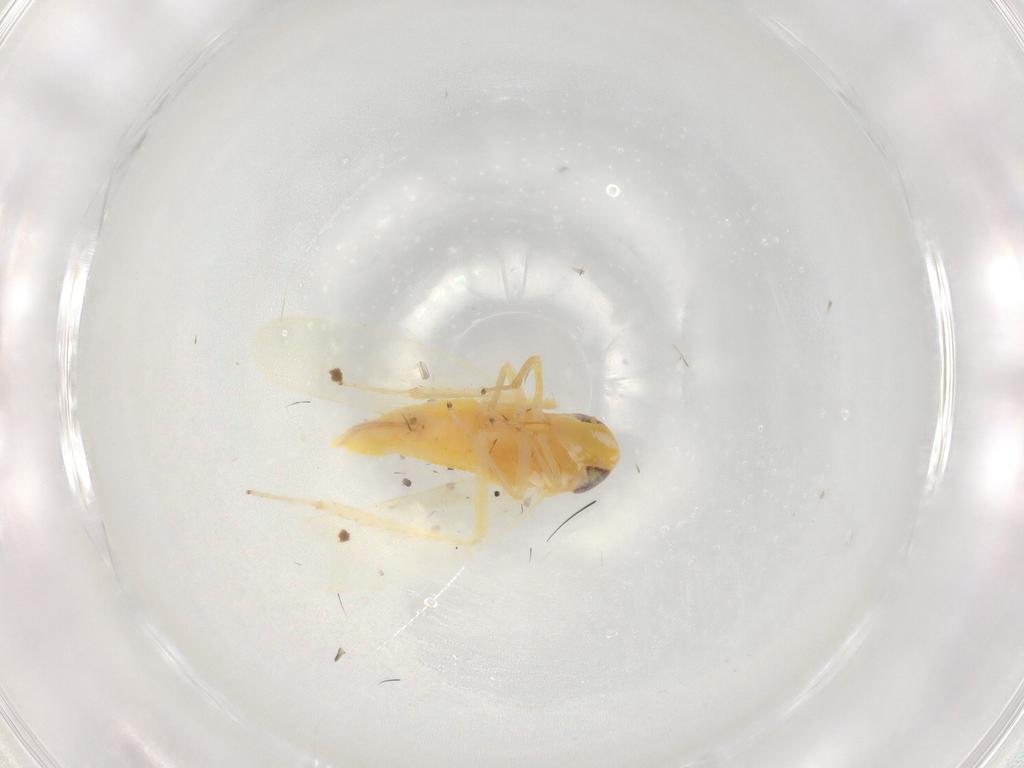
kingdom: Animalia
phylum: Arthropoda
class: Insecta
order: Hemiptera
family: Cicadellidae
